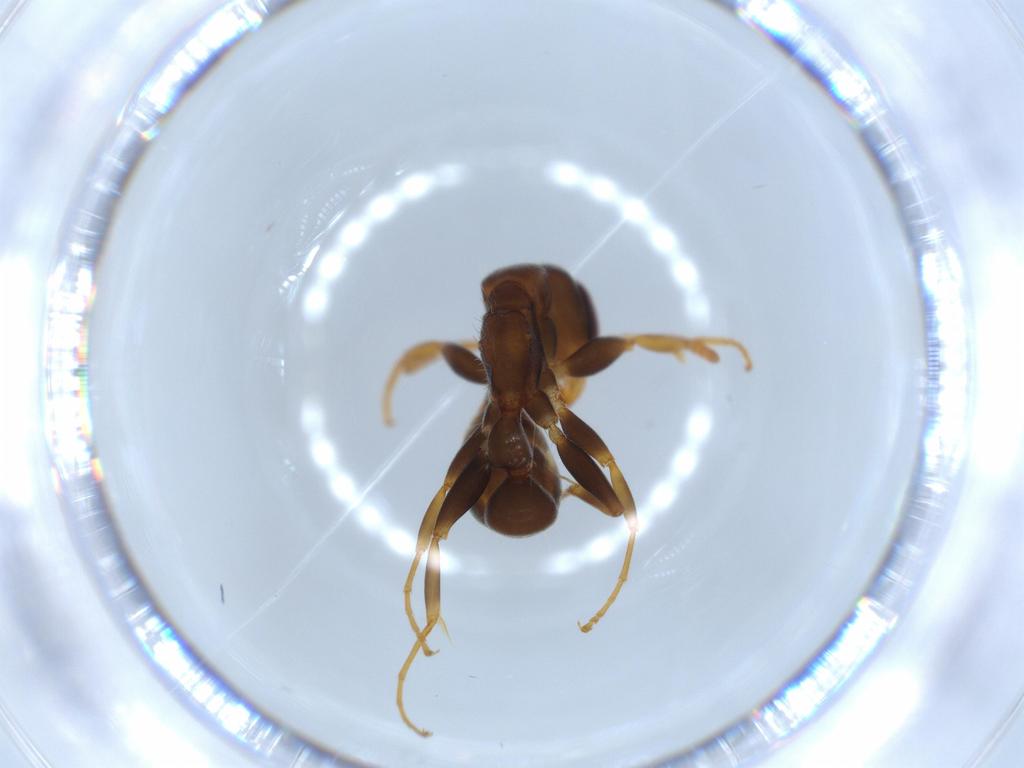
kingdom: Animalia
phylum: Arthropoda
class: Insecta
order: Hymenoptera
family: Formicidae
